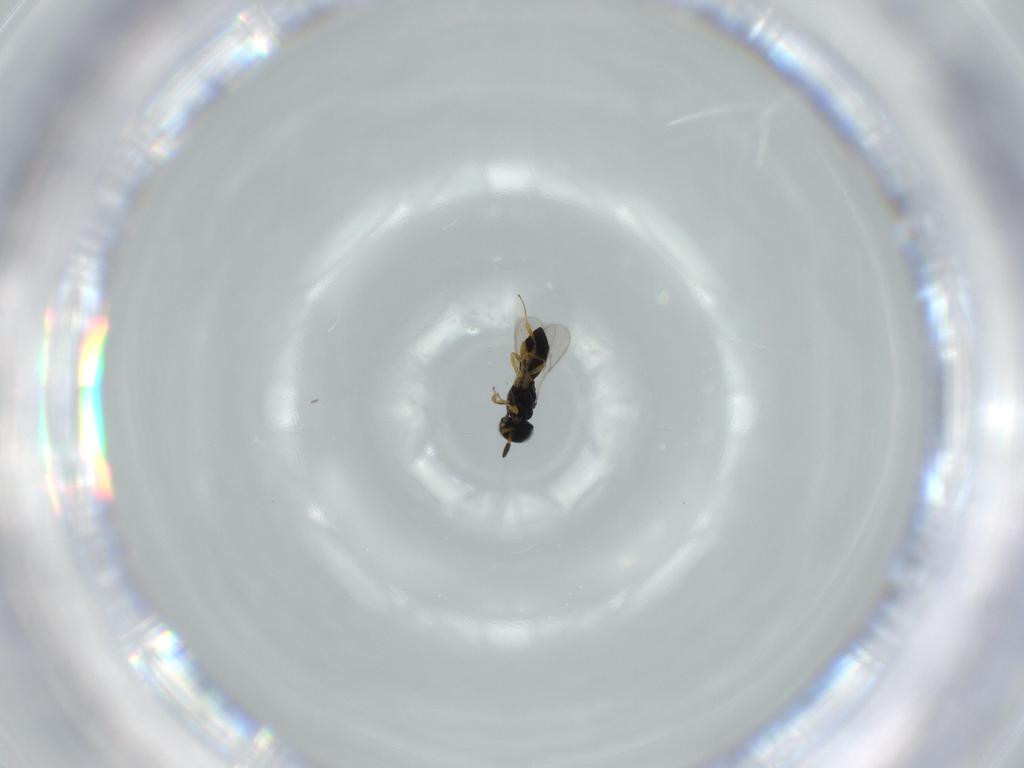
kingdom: Animalia
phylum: Arthropoda
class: Insecta
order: Hymenoptera
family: Scelionidae
